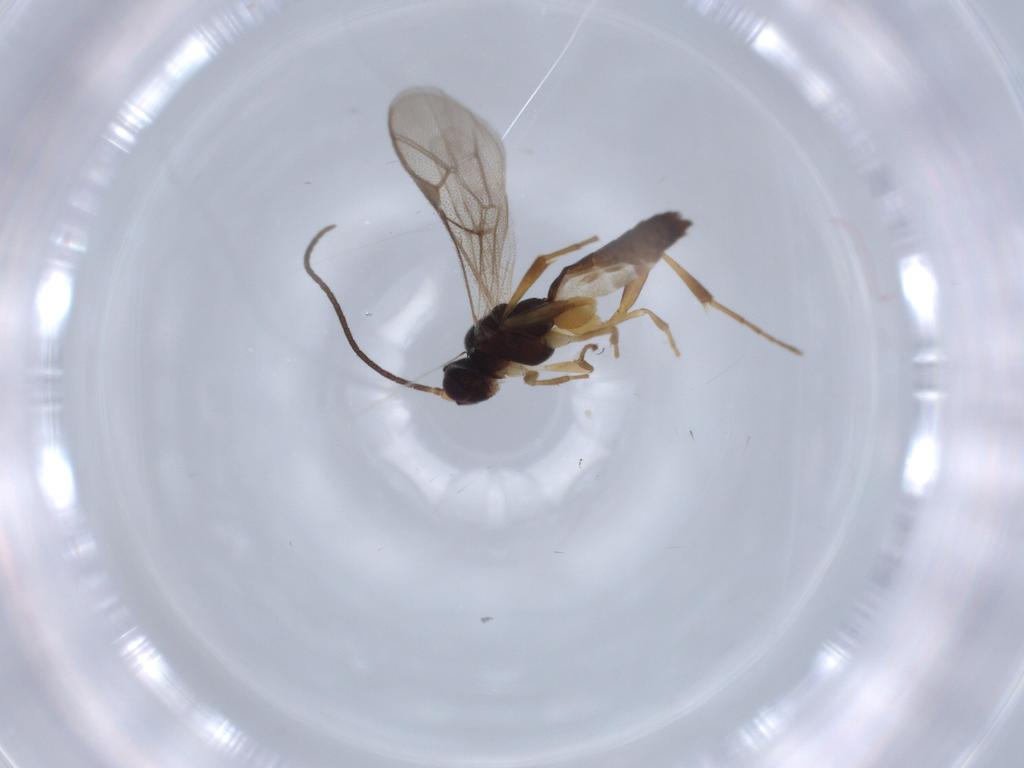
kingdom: Animalia
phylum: Arthropoda
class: Insecta
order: Hymenoptera
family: Ichneumonidae
